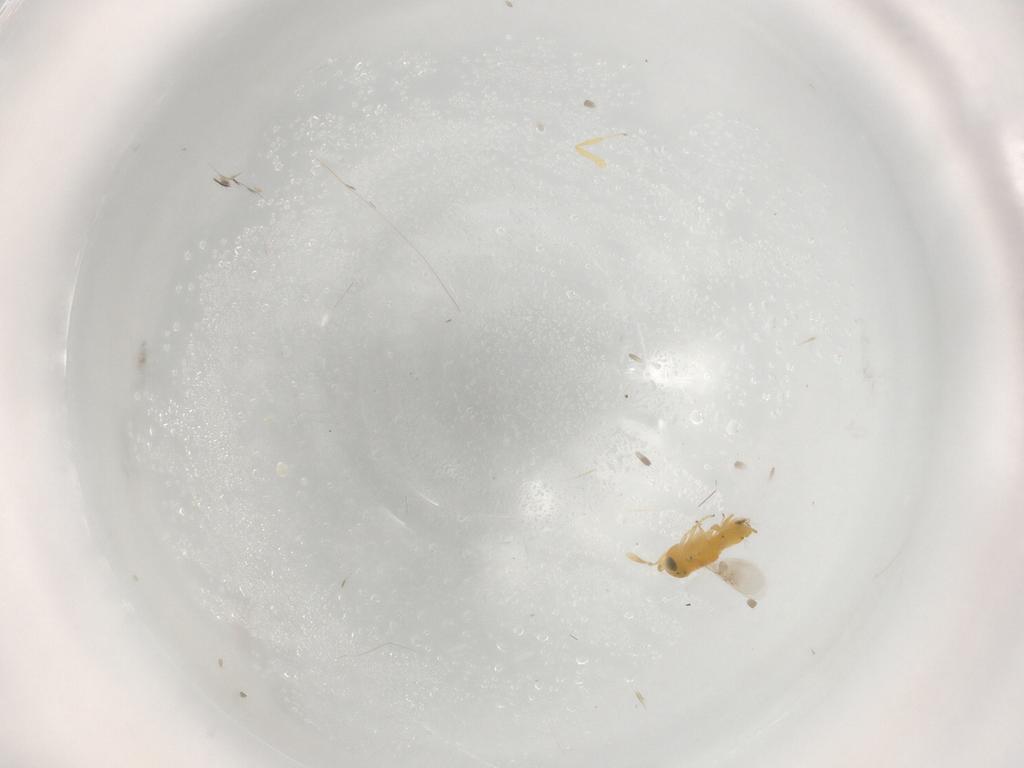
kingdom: Animalia
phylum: Arthropoda
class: Insecta
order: Hymenoptera
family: Encyrtidae
